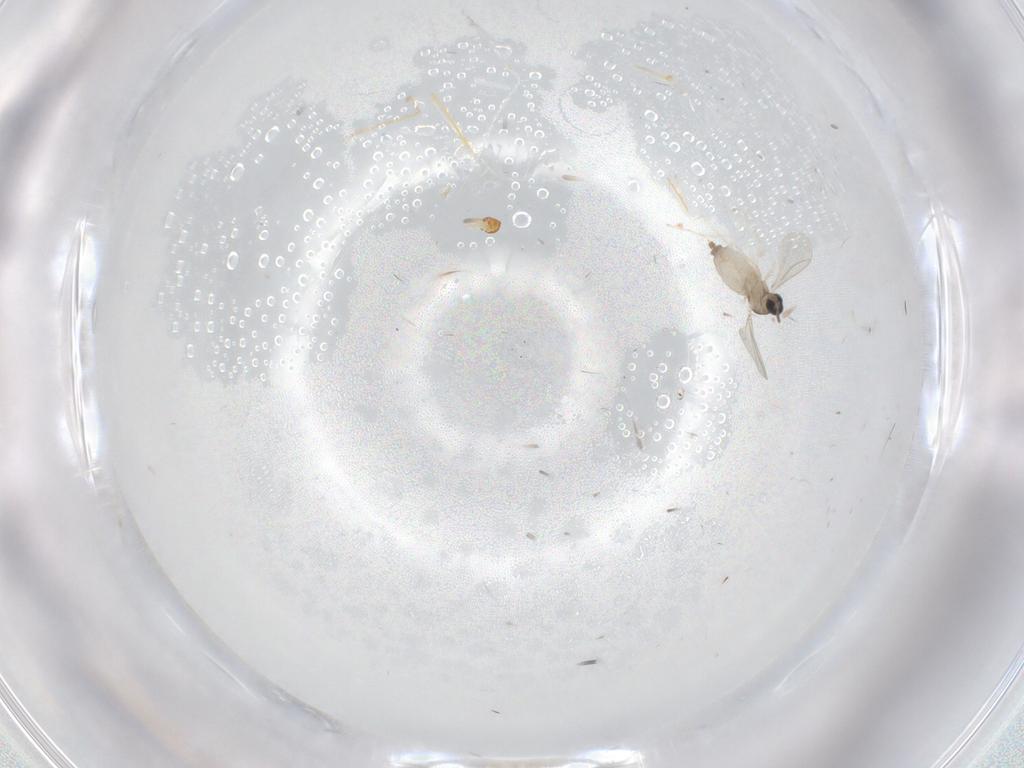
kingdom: Animalia
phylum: Arthropoda
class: Insecta
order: Diptera
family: Cecidomyiidae
